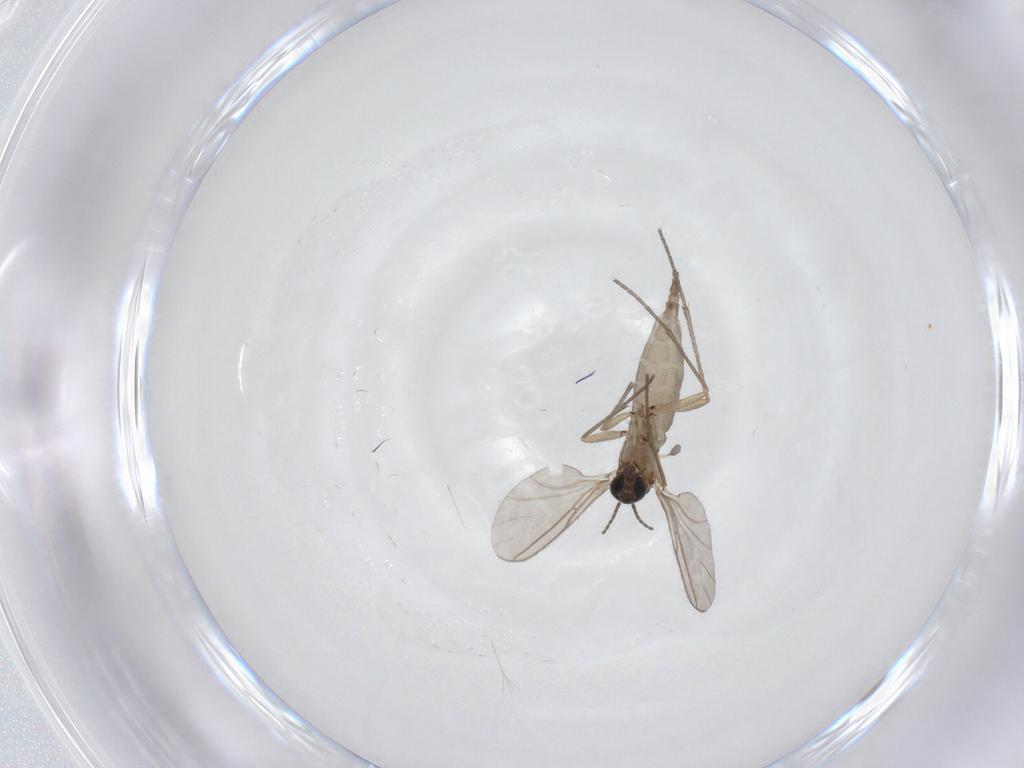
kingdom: Animalia
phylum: Arthropoda
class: Insecta
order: Diptera
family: Sciaridae
